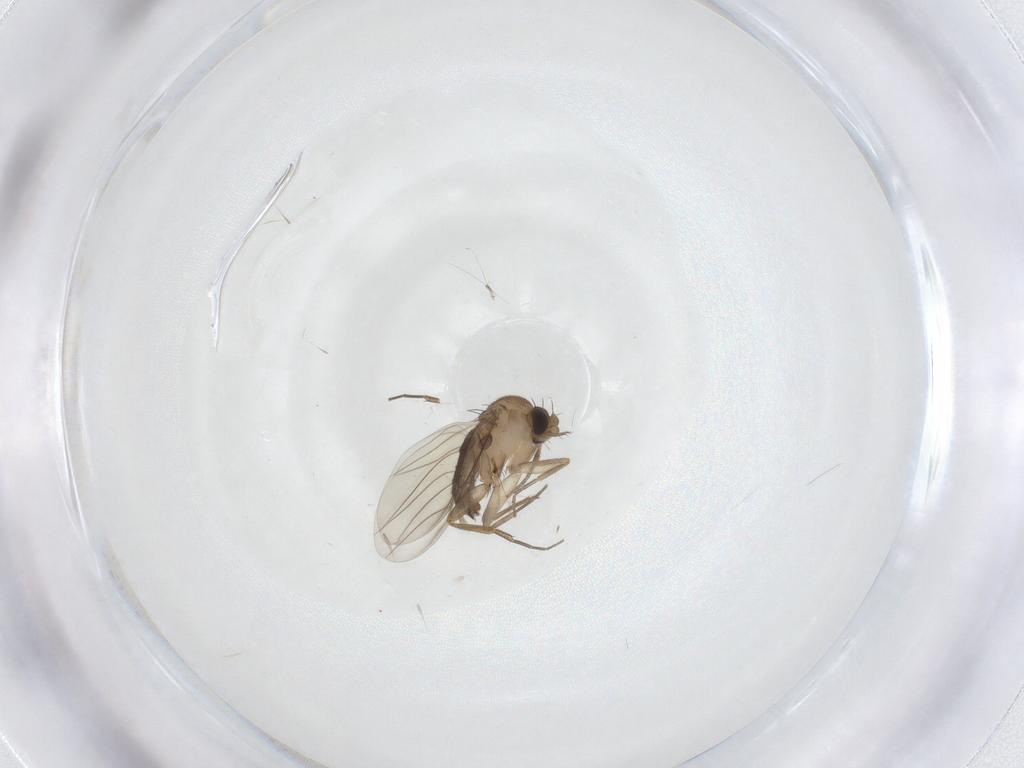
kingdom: Animalia
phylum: Arthropoda
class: Insecta
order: Diptera
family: Phoridae
